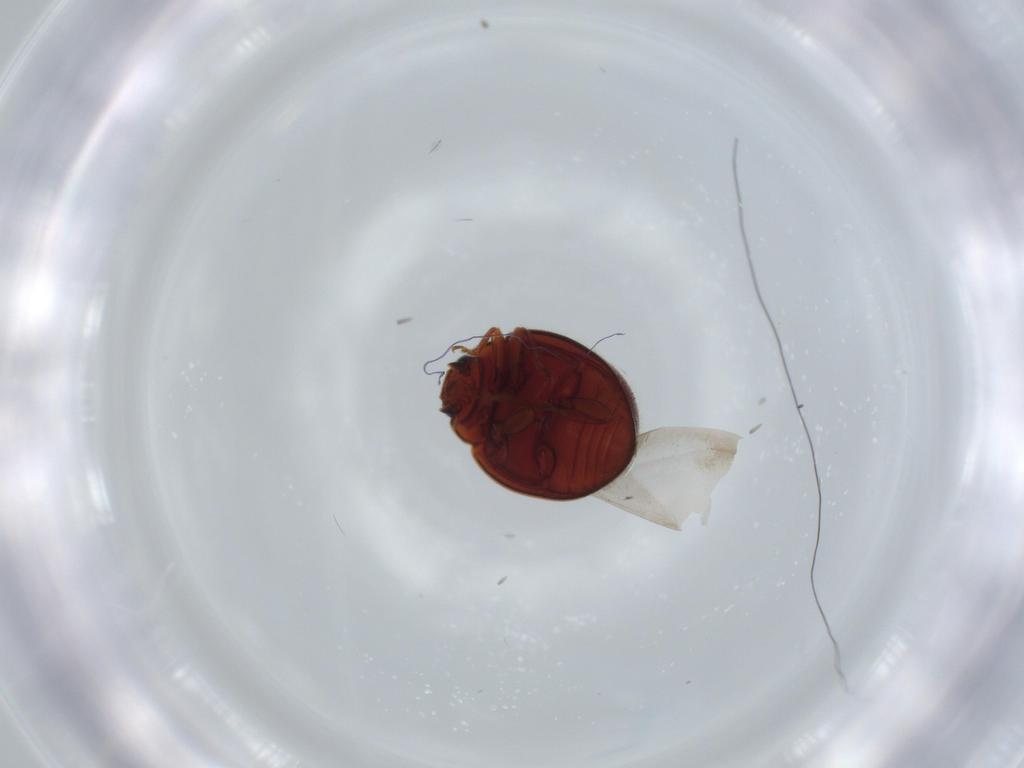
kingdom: Animalia
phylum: Arthropoda
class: Insecta
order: Coleoptera
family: Coccinellidae
